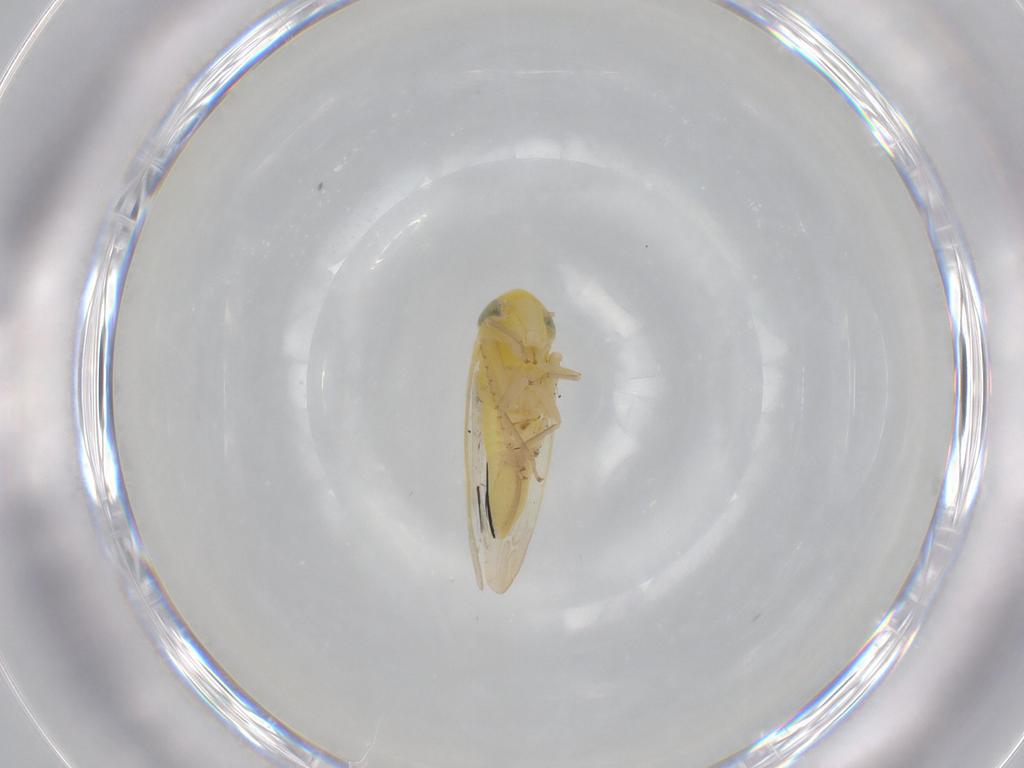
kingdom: Animalia
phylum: Arthropoda
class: Insecta
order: Hemiptera
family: Cicadellidae
